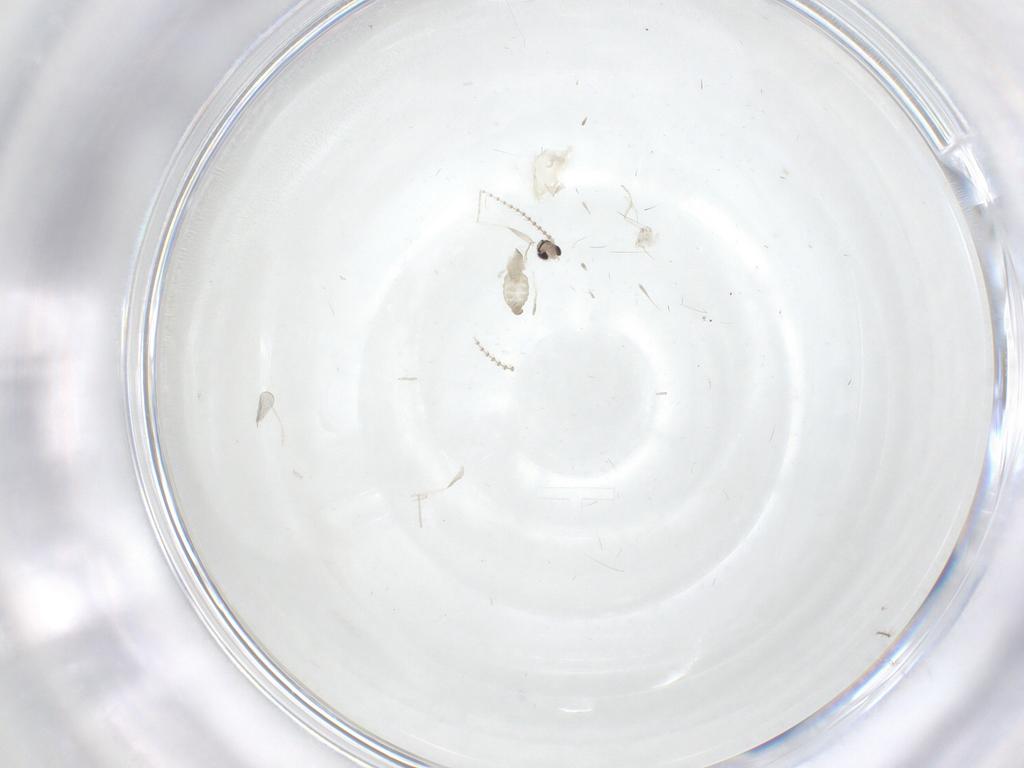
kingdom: Animalia
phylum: Arthropoda
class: Insecta
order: Diptera
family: Cecidomyiidae
